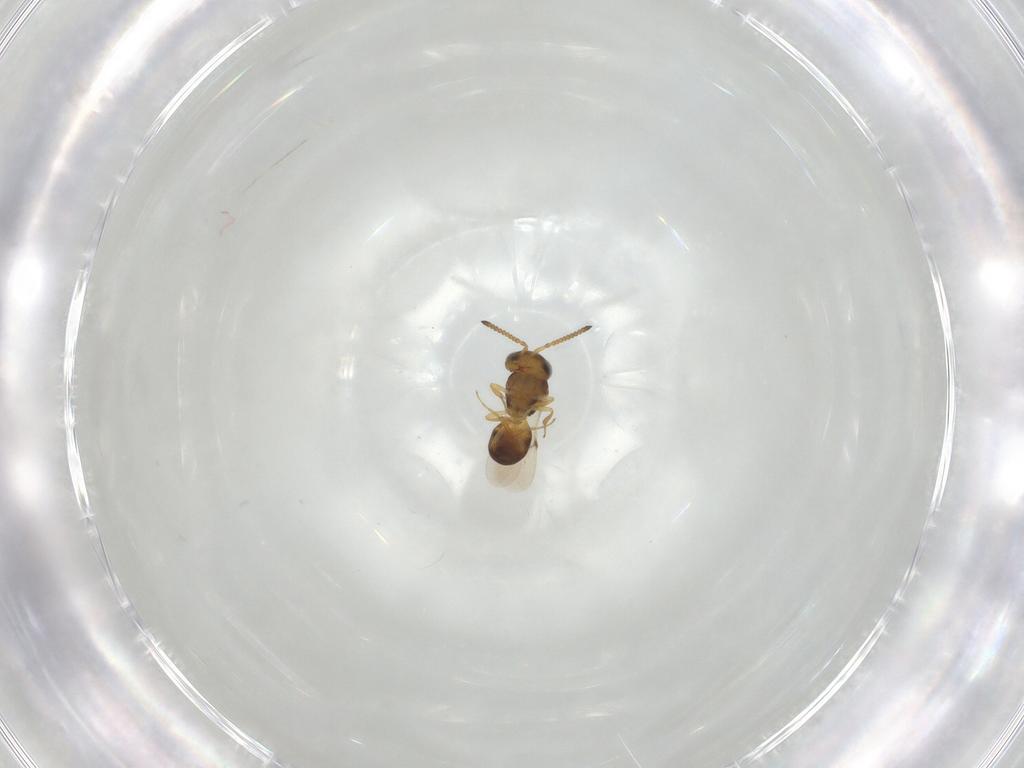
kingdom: Animalia
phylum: Arthropoda
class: Insecta
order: Hymenoptera
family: Scelionidae
